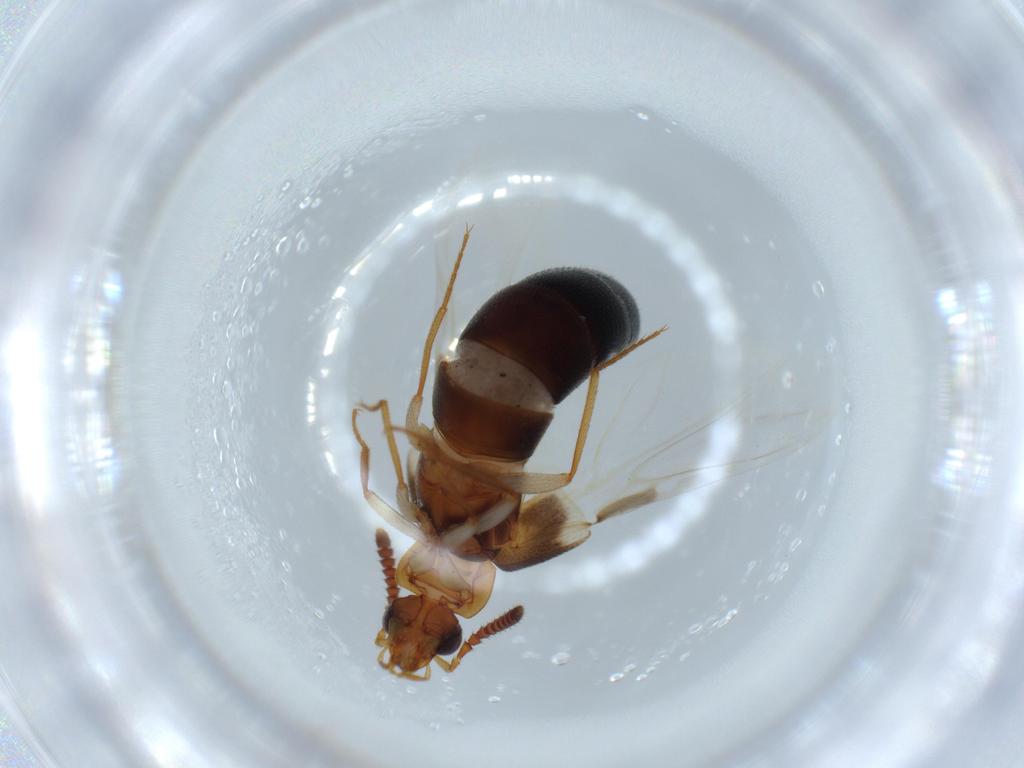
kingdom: Animalia
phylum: Arthropoda
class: Insecta
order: Coleoptera
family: Staphylinidae
